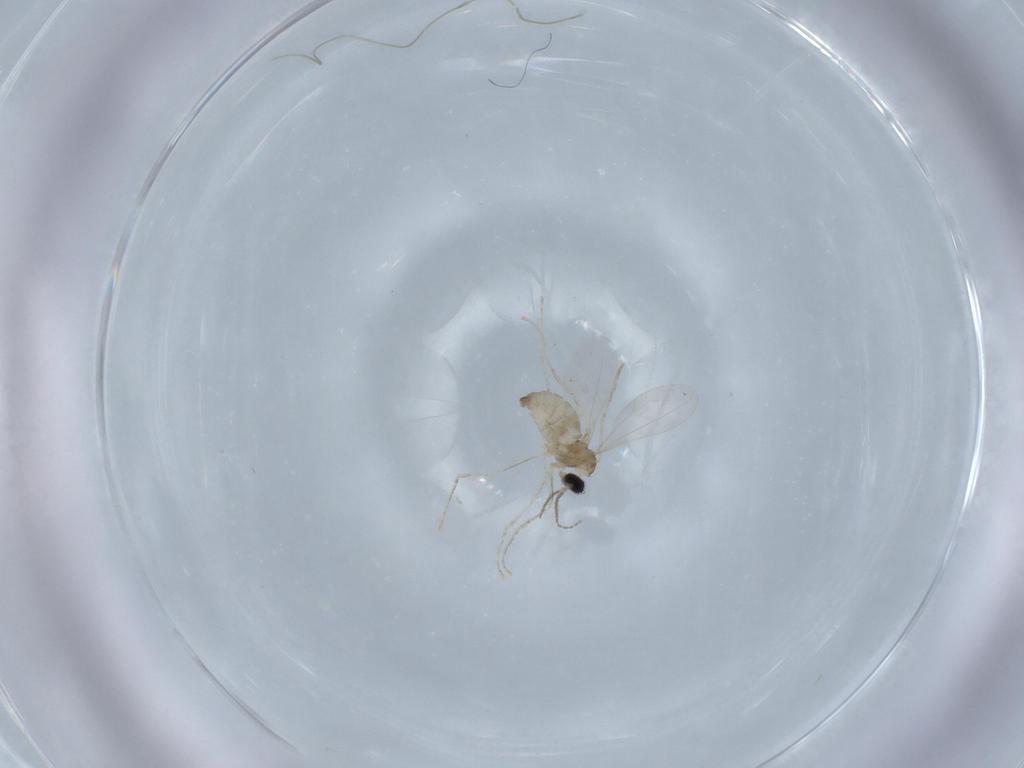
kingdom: Animalia
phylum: Arthropoda
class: Insecta
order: Diptera
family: Cecidomyiidae
